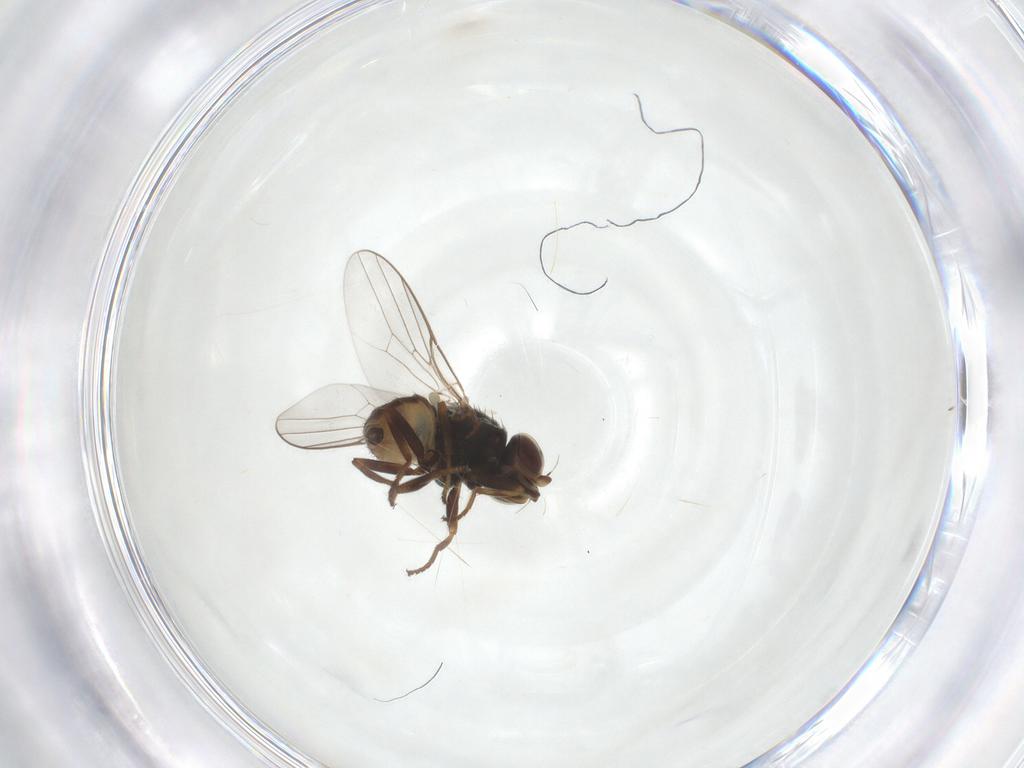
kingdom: Animalia
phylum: Arthropoda
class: Insecta
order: Diptera
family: Chloropidae
